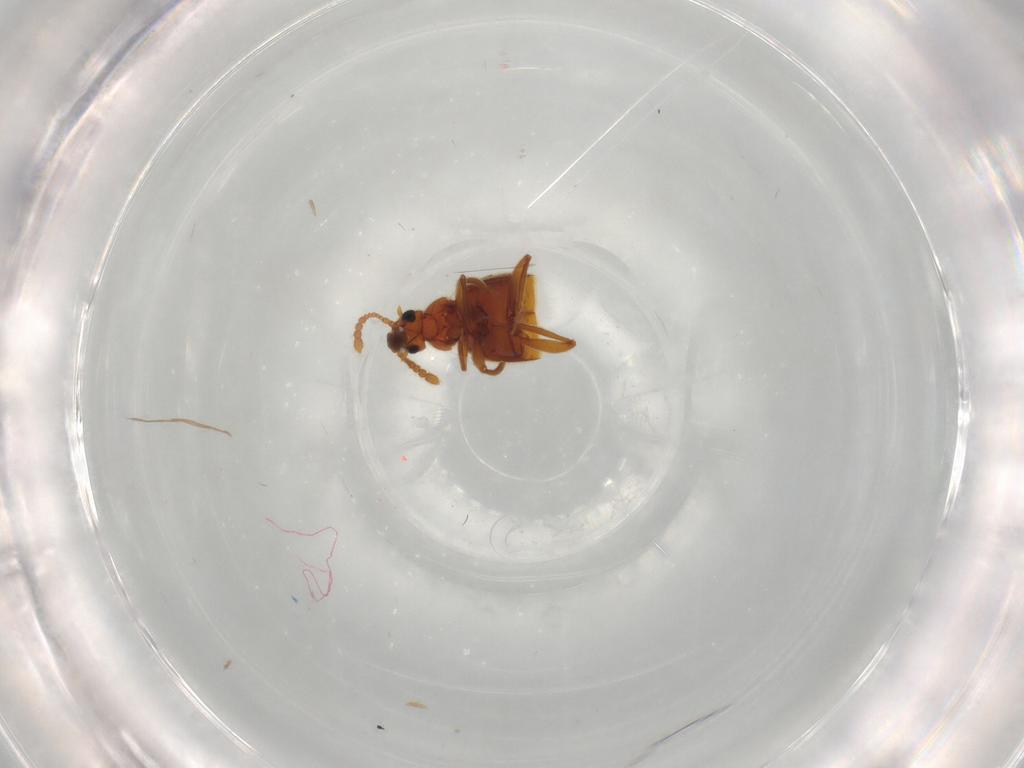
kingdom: Animalia
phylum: Arthropoda
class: Insecta
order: Coleoptera
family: Staphylinidae
